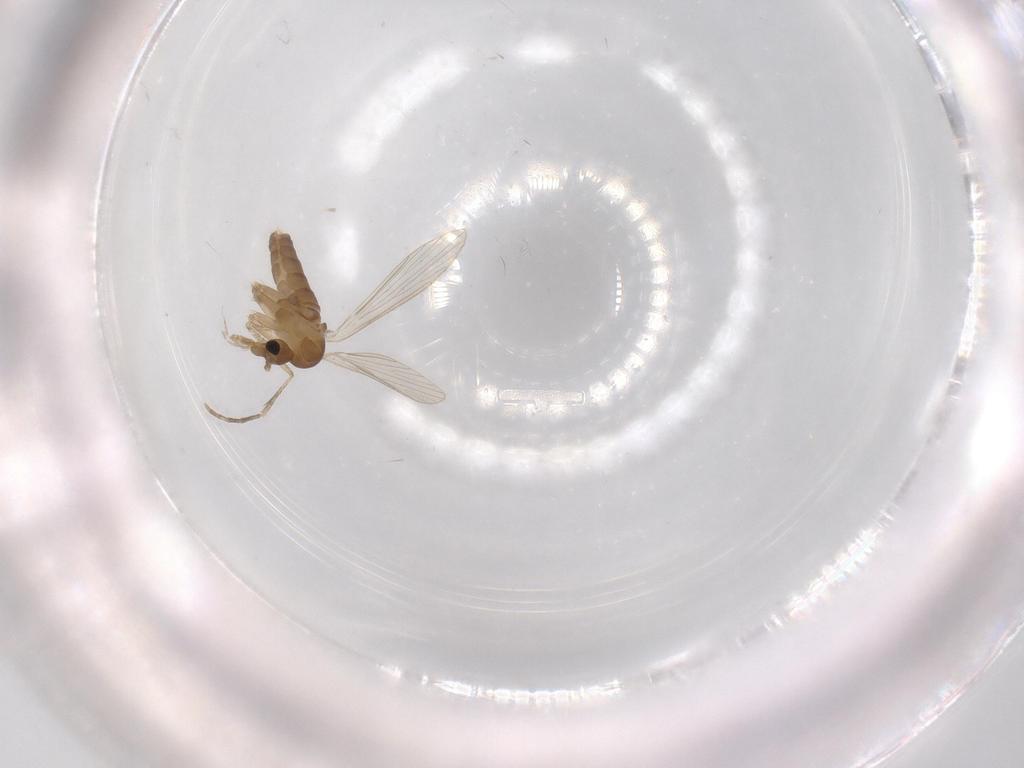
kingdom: Animalia
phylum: Arthropoda
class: Insecta
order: Diptera
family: Psychodidae
